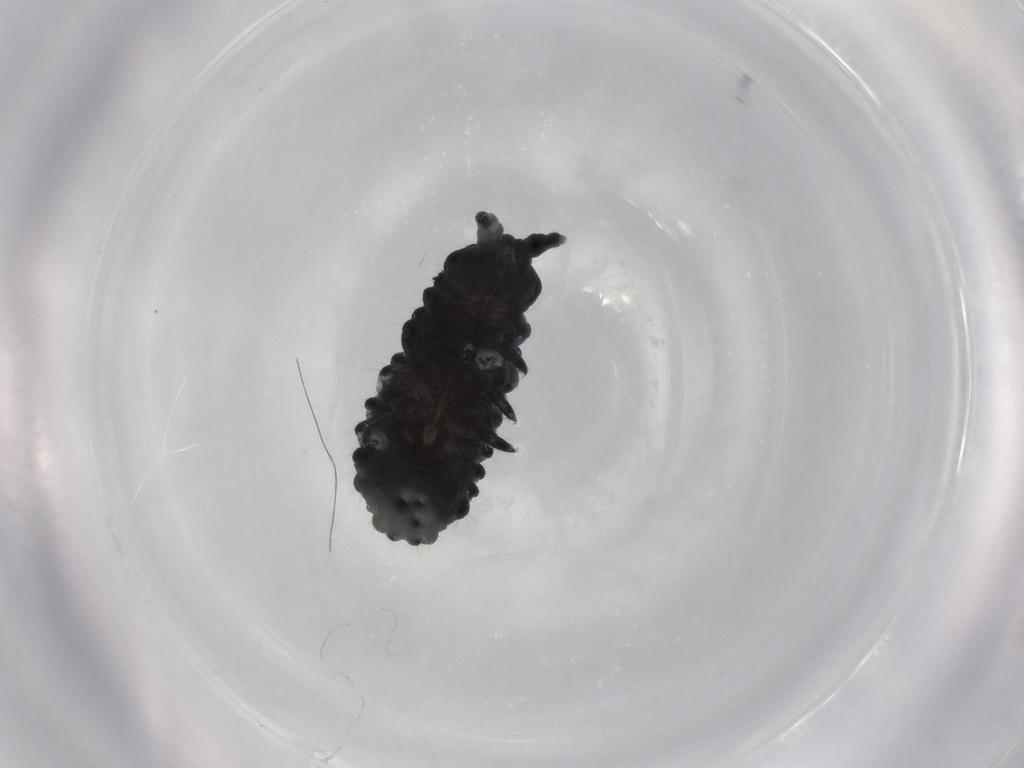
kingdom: Animalia
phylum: Arthropoda
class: Collembola
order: Poduromorpha
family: Neanuridae
